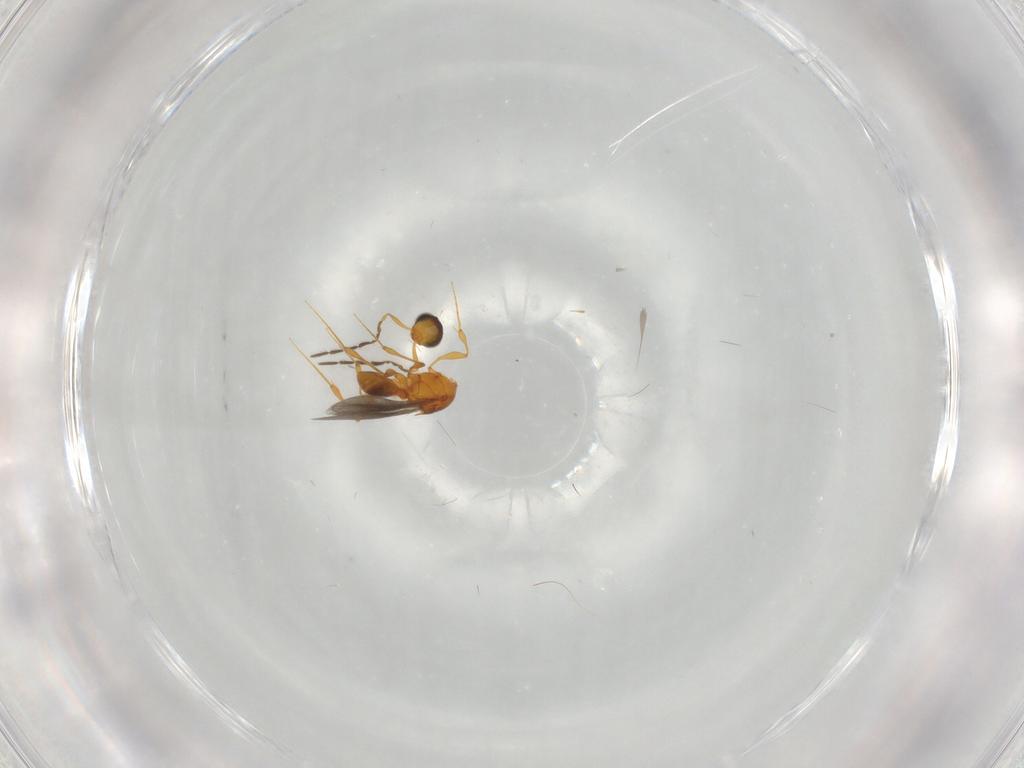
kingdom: Animalia
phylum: Arthropoda
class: Insecta
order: Hymenoptera
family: Platygastridae
